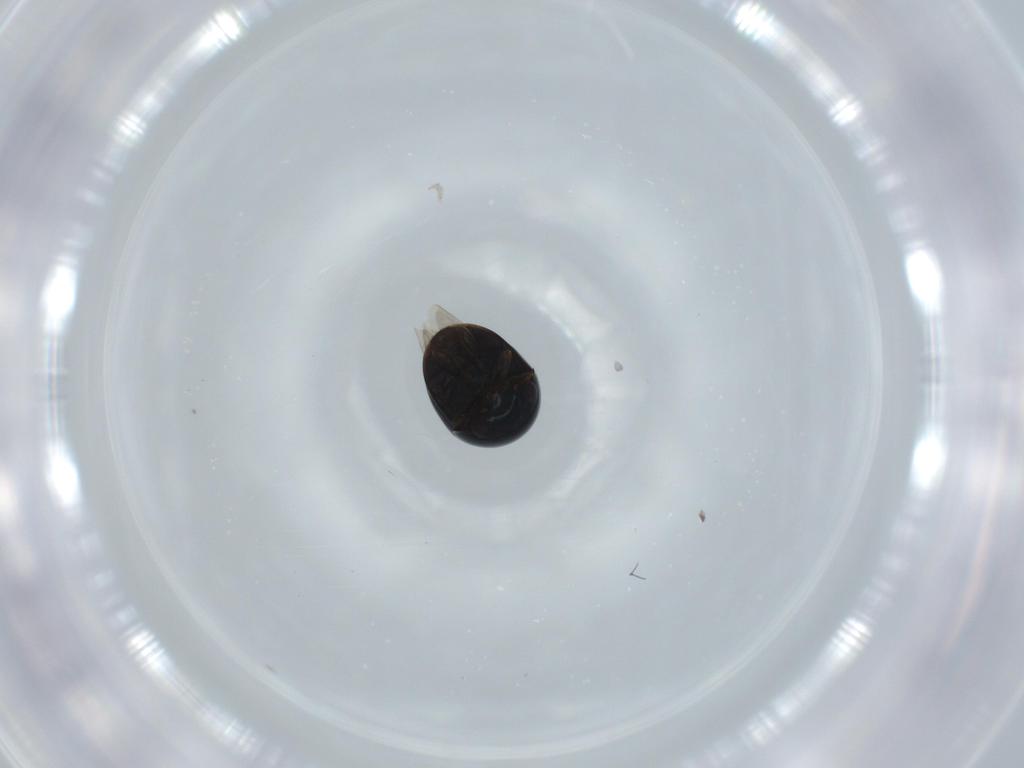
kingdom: Animalia
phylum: Arthropoda
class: Insecta
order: Coleoptera
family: Cybocephalidae
